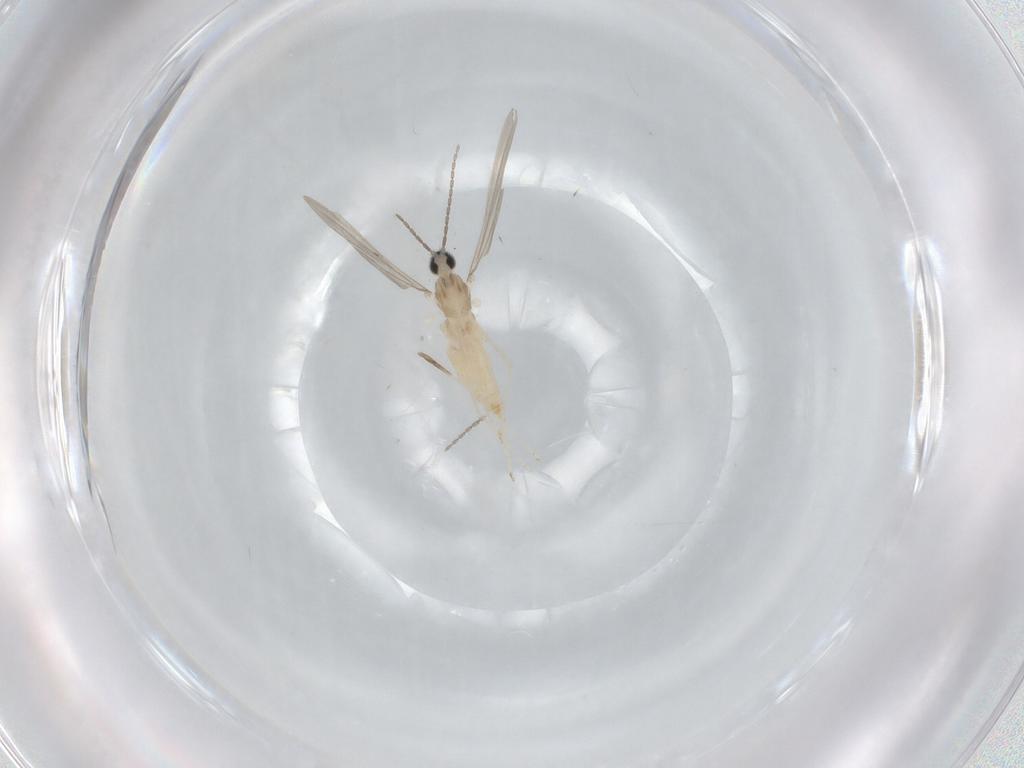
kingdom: Animalia
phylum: Arthropoda
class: Insecta
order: Diptera
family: Cecidomyiidae
